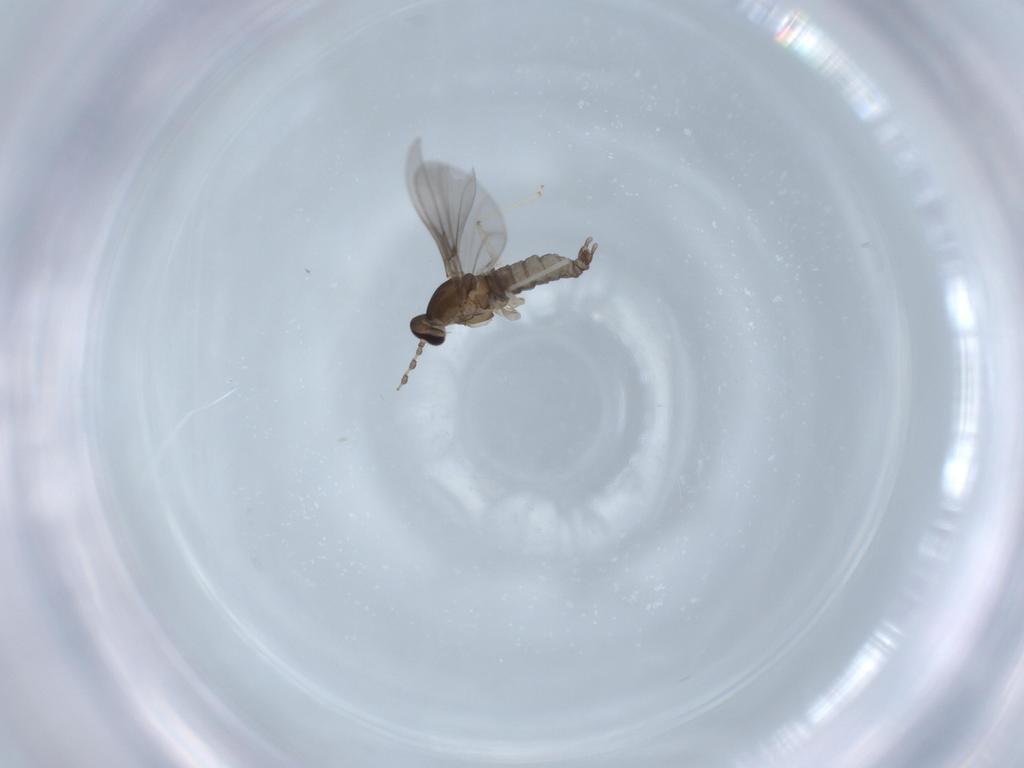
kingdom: Animalia
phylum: Arthropoda
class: Insecta
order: Diptera
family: Cecidomyiidae
